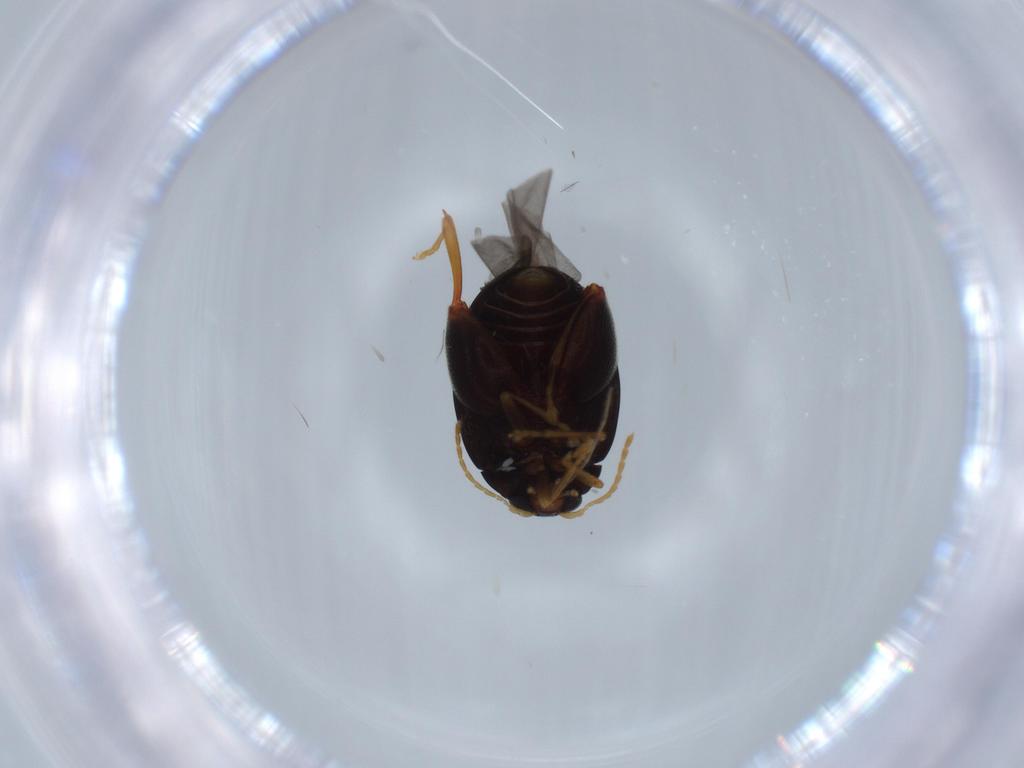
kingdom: Animalia
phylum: Arthropoda
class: Insecta
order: Coleoptera
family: Chrysomelidae
